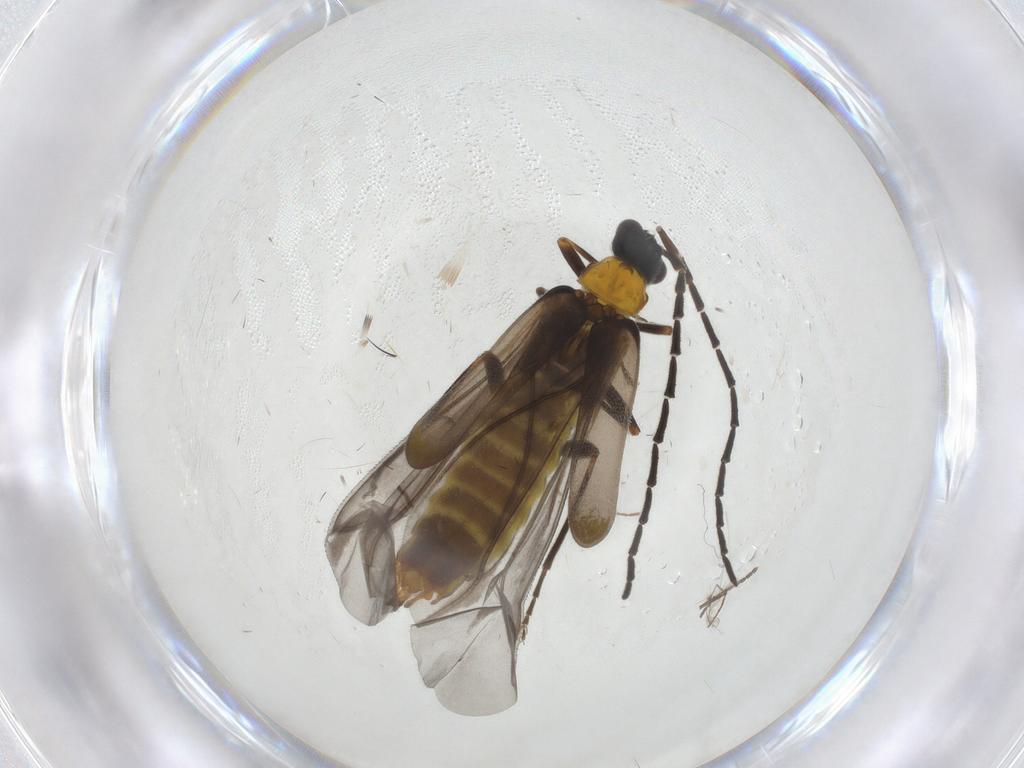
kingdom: Animalia
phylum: Arthropoda
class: Insecta
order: Coleoptera
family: Cantharidae
